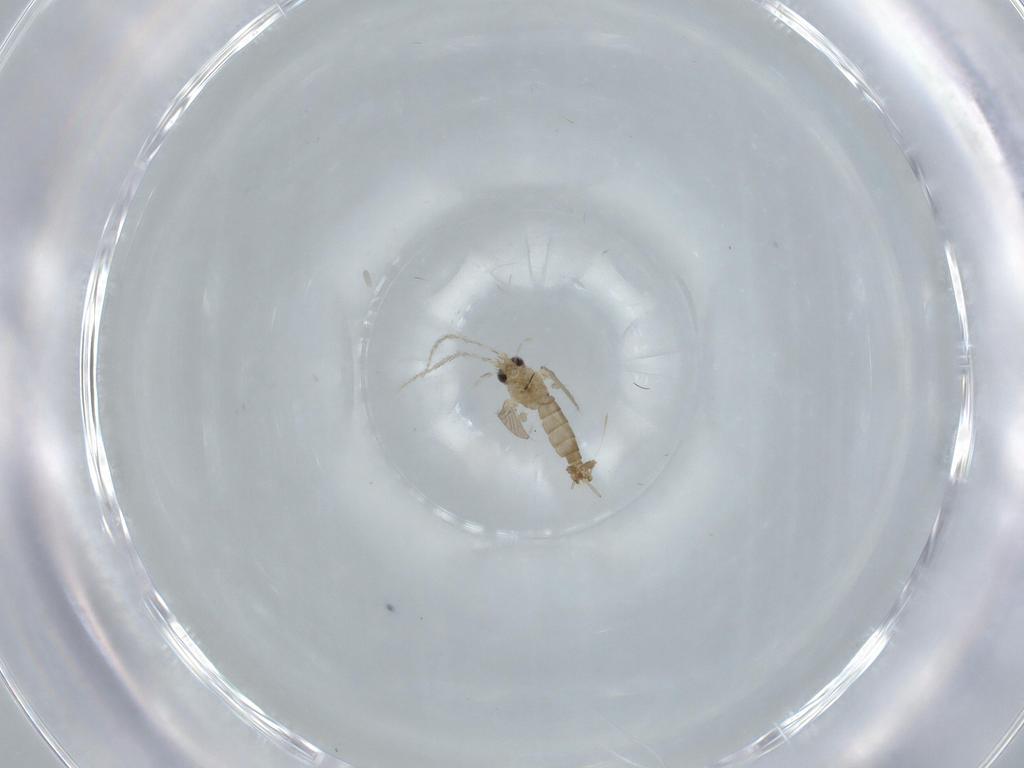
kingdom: Animalia
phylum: Arthropoda
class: Insecta
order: Diptera
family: Psychodidae
